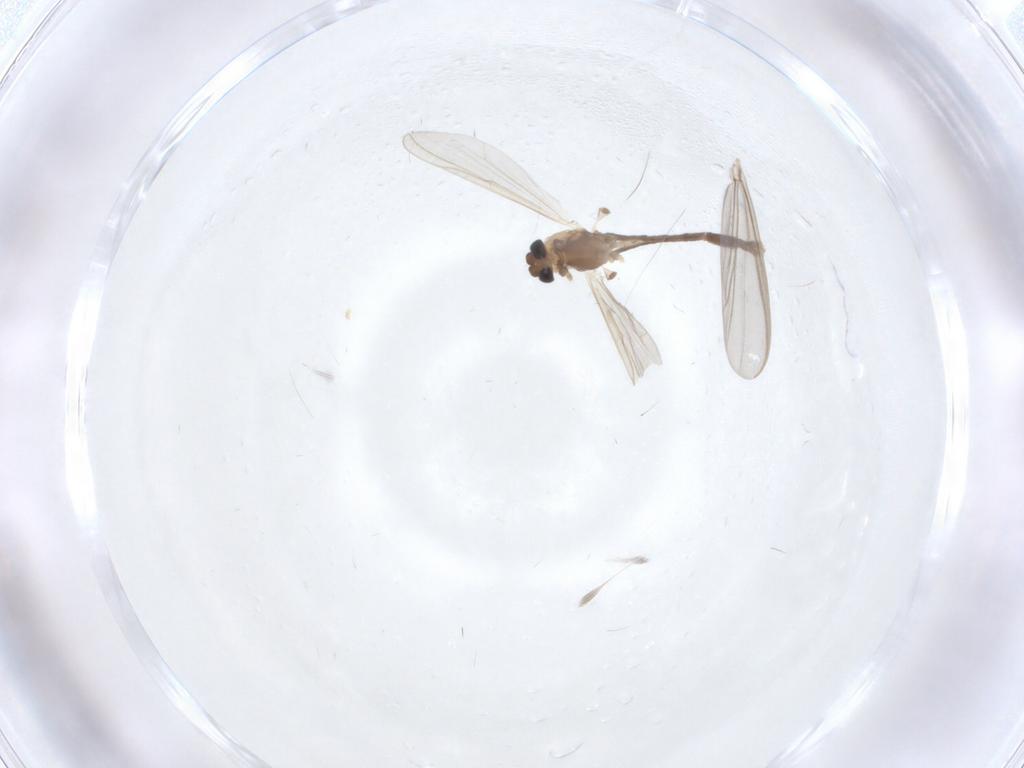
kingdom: Animalia
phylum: Arthropoda
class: Insecta
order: Diptera
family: Chironomidae
